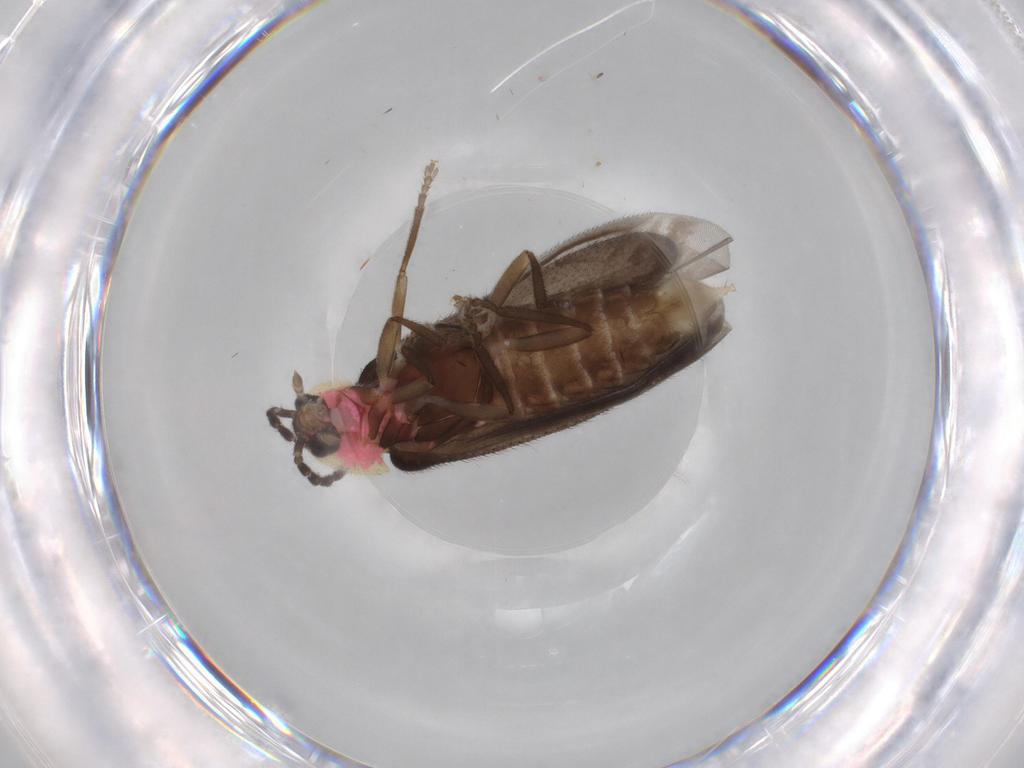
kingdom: Animalia
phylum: Arthropoda
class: Insecta
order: Coleoptera
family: Lampyridae
